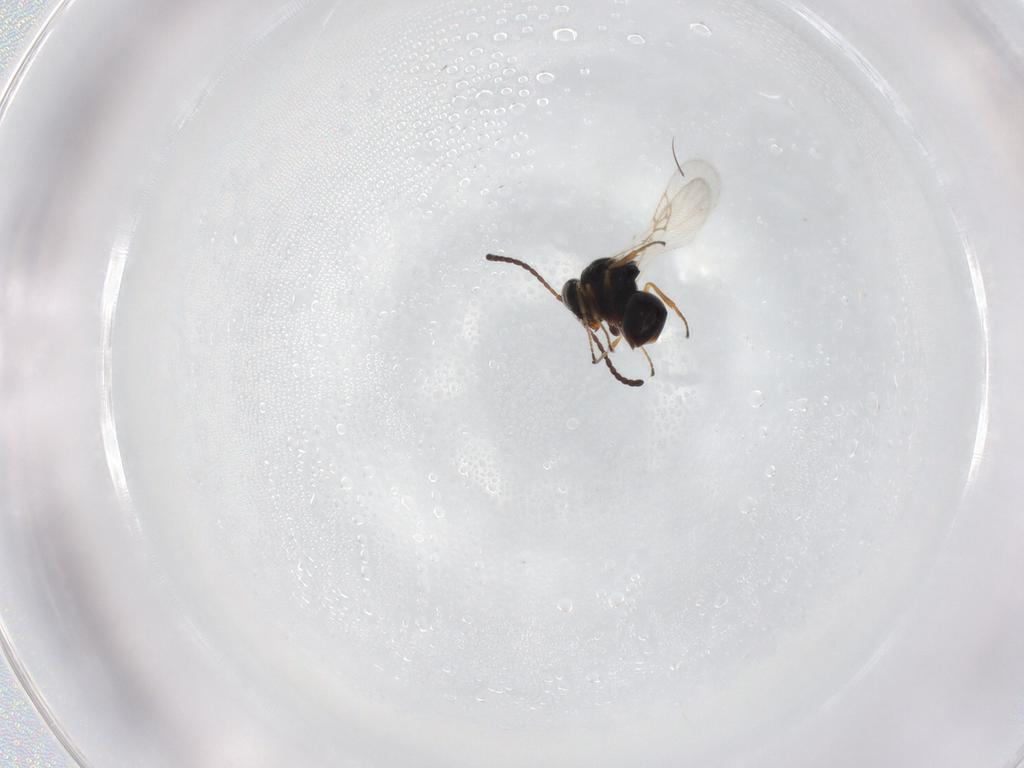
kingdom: Animalia
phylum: Arthropoda
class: Insecta
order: Hymenoptera
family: Figitidae
